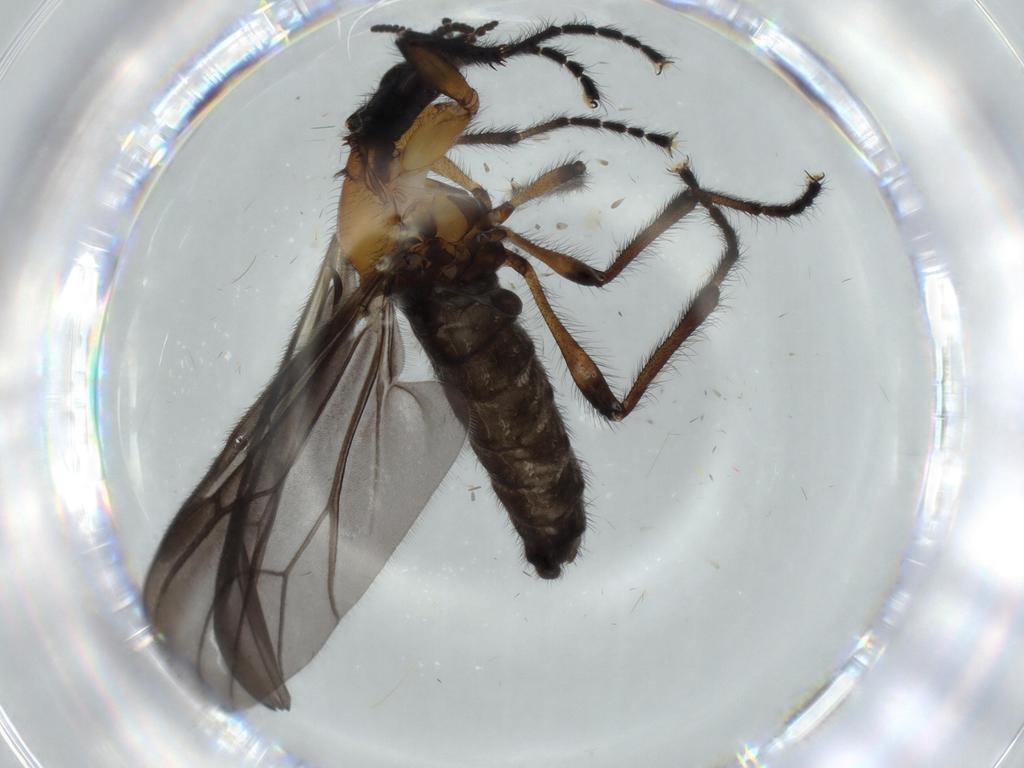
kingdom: Animalia
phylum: Arthropoda
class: Insecta
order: Diptera
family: Bibionidae
